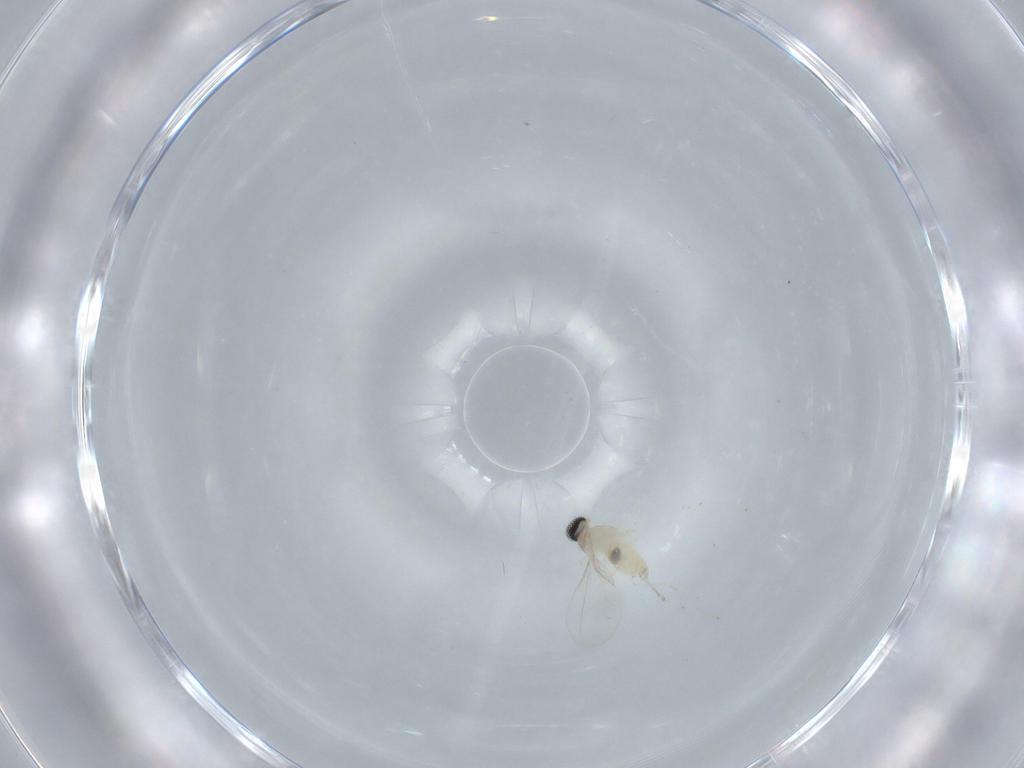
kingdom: Animalia
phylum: Arthropoda
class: Insecta
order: Diptera
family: Cecidomyiidae
